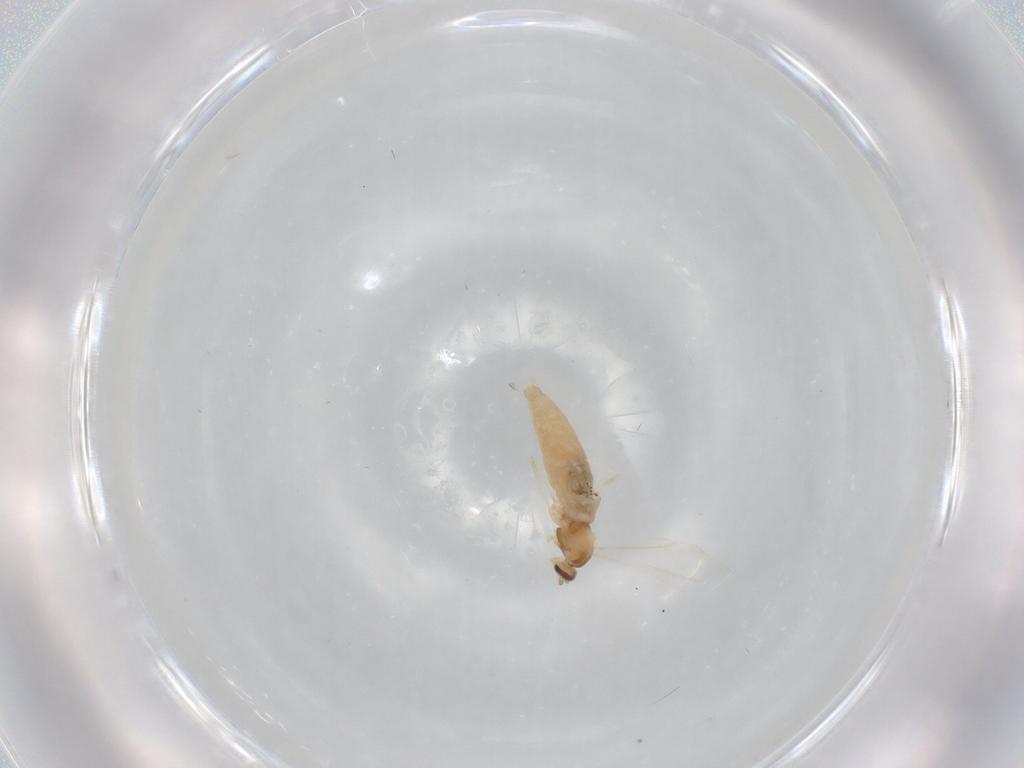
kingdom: Animalia
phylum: Arthropoda
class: Insecta
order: Diptera
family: Cecidomyiidae
